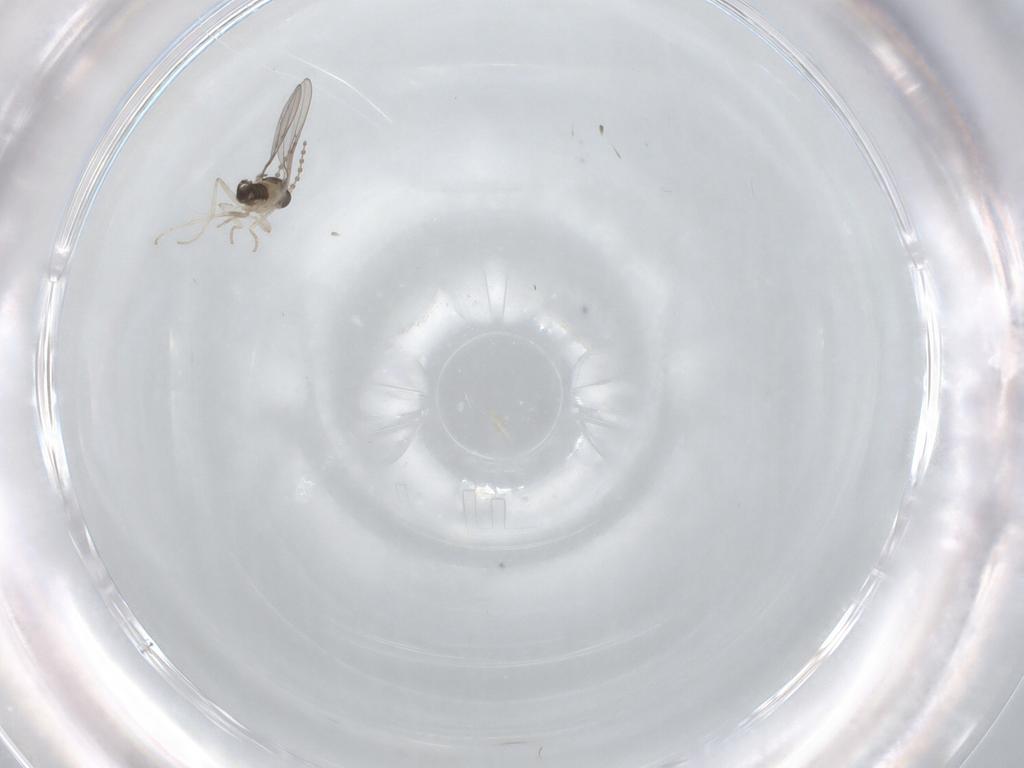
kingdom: Animalia
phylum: Arthropoda
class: Insecta
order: Diptera
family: Cecidomyiidae
